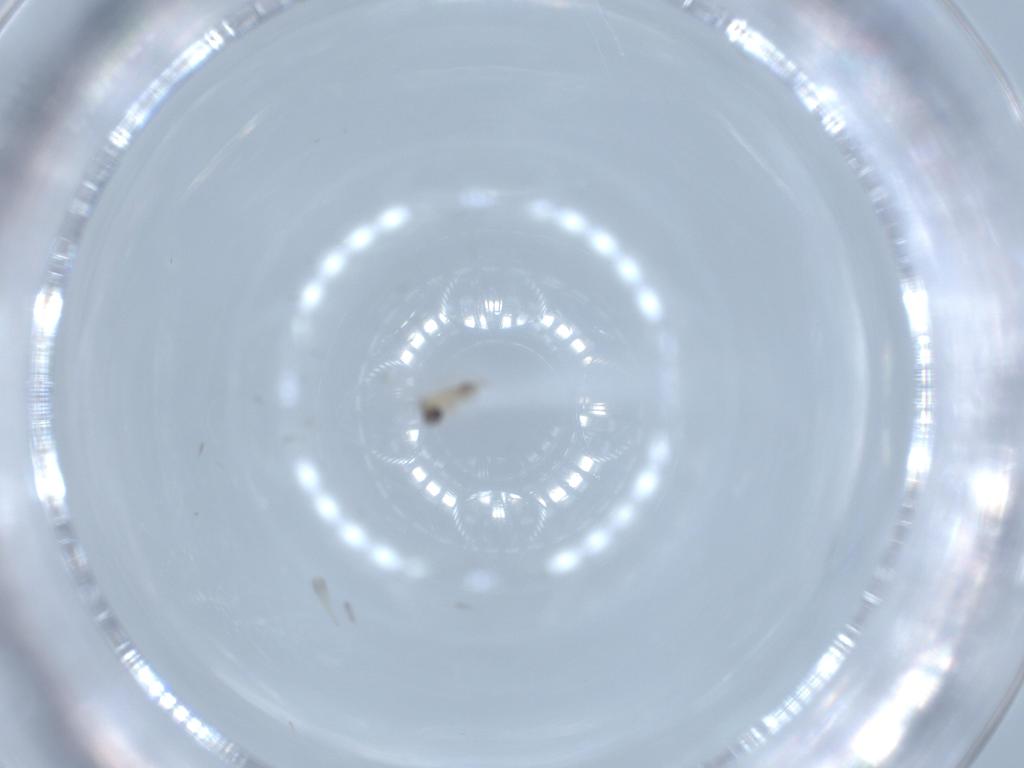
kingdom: Animalia
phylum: Arthropoda
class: Insecta
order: Diptera
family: Cecidomyiidae
